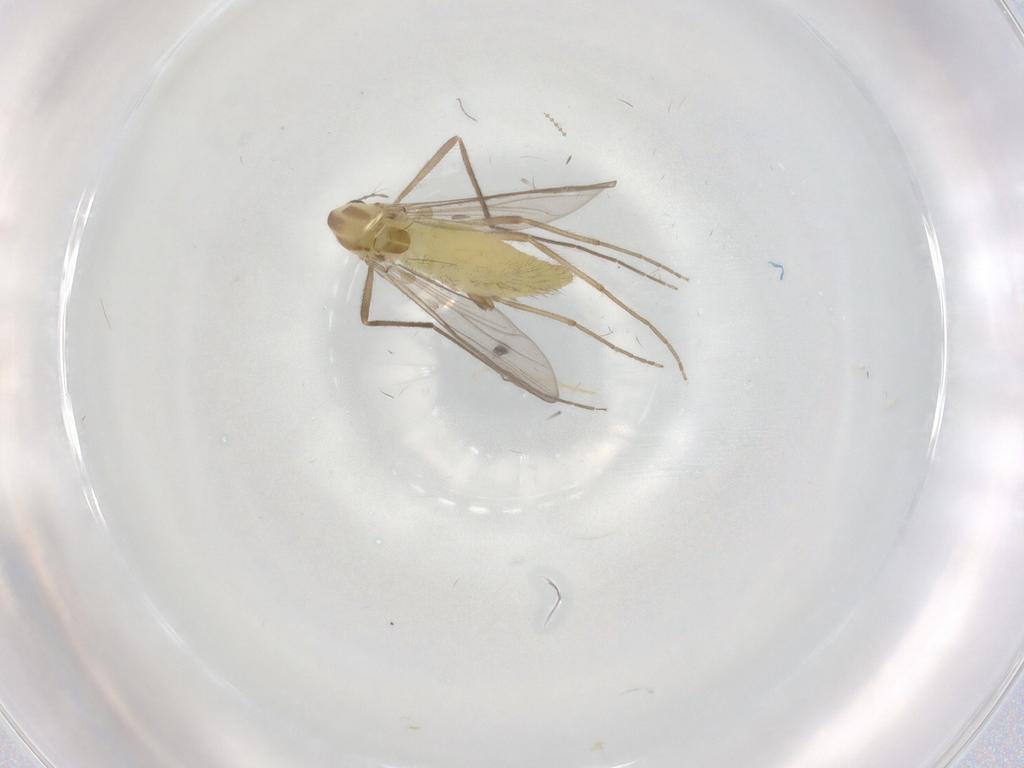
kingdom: Animalia
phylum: Arthropoda
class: Insecta
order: Diptera
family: Chironomidae
